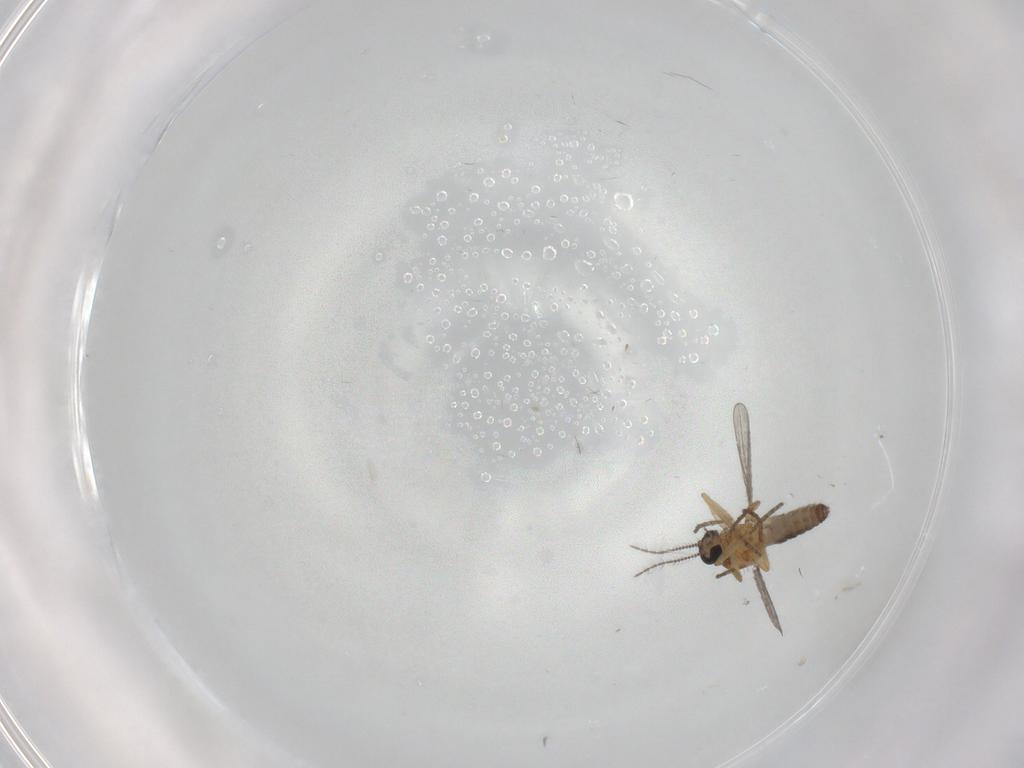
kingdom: Animalia
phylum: Arthropoda
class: Insecta
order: Diptera
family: Ceratopogonidae
